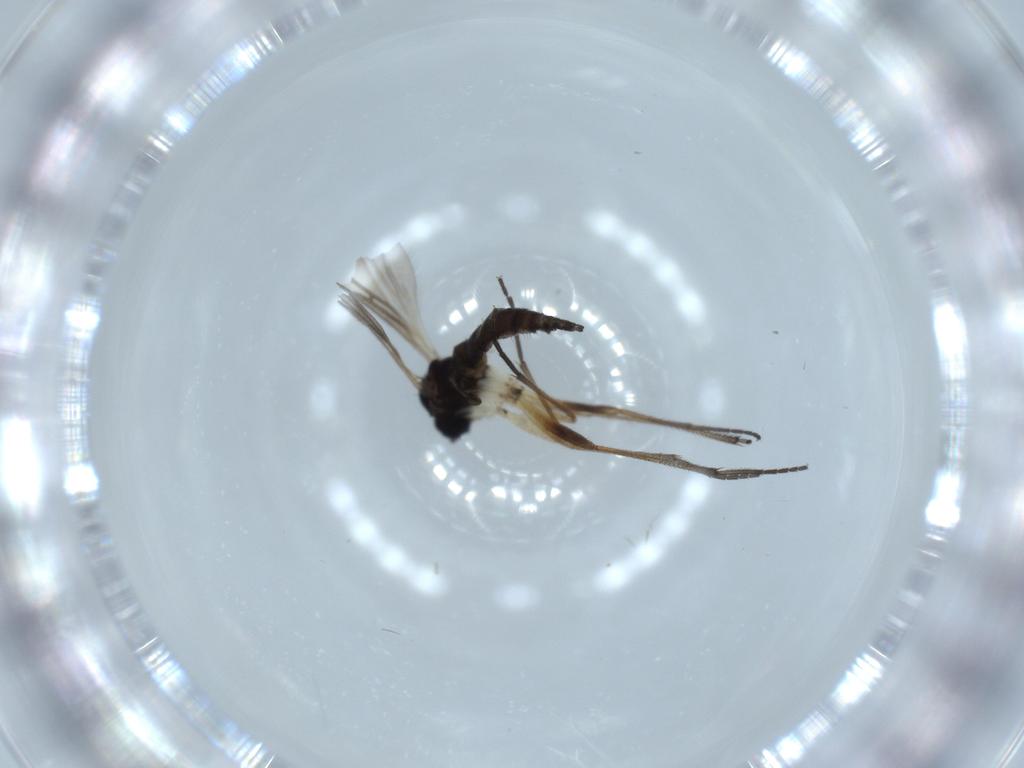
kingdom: Animalia
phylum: Arthropoda
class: Insecta
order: Diptera
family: Sciaridae
